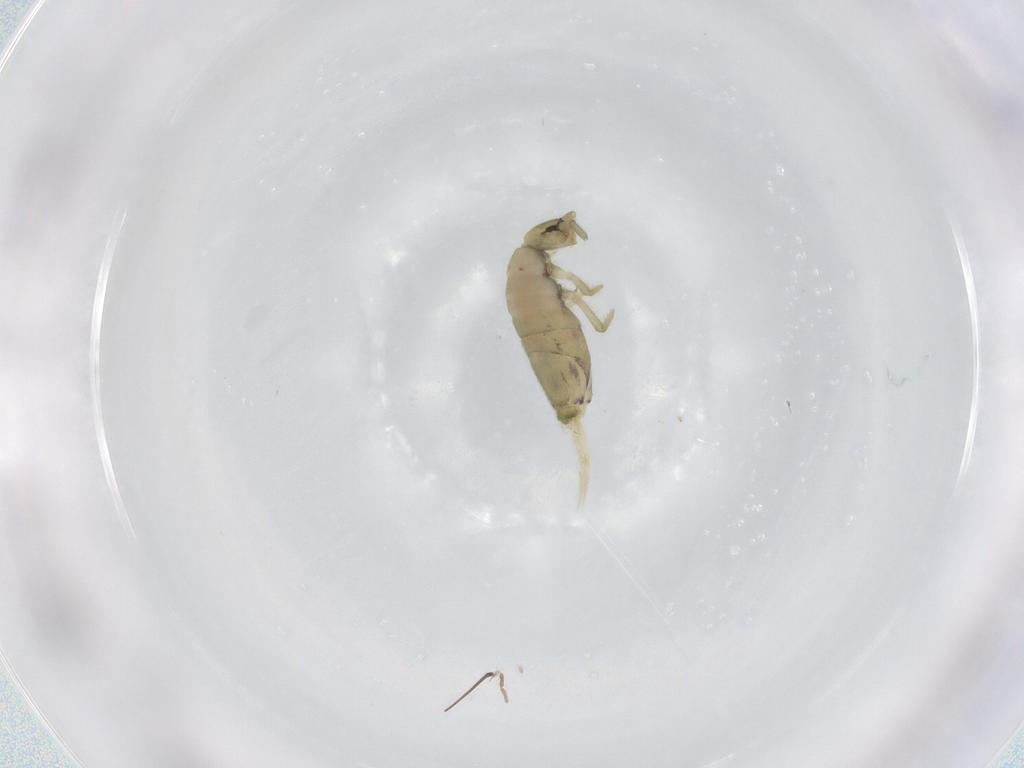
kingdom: Animalia
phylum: Arthropoda
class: Collembola
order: Entomobryomorpha
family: Entomobryidae
